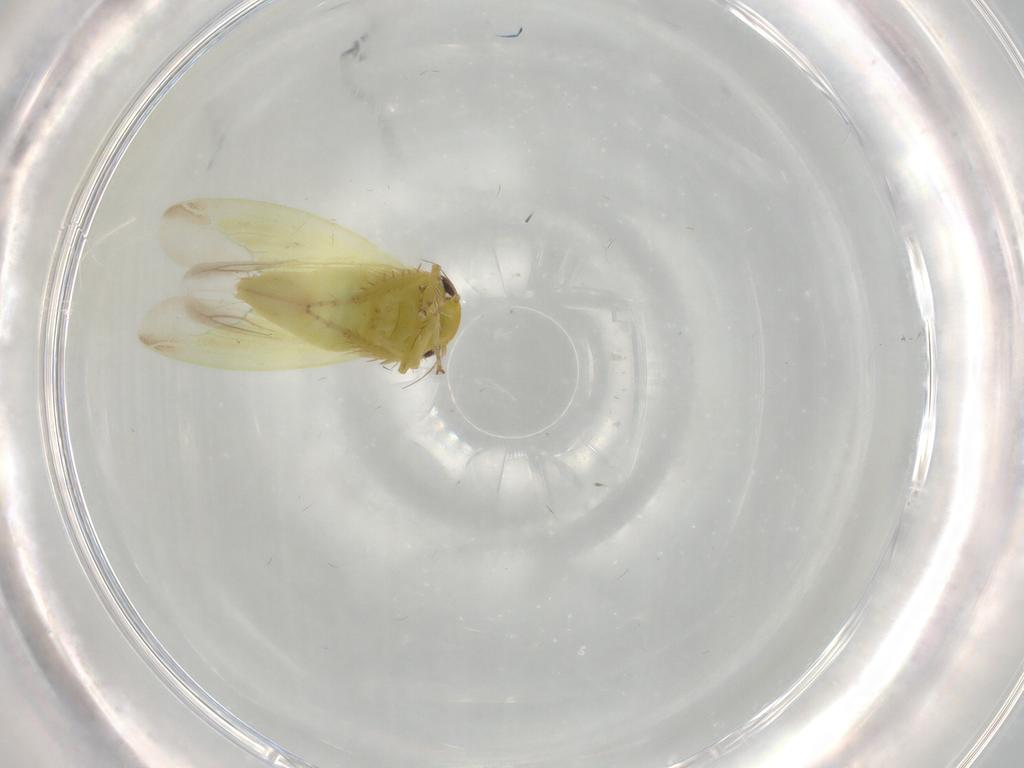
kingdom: Animalia
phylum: Arthropoda
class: Insecta
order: Hemiptera
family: Cicadellidae
